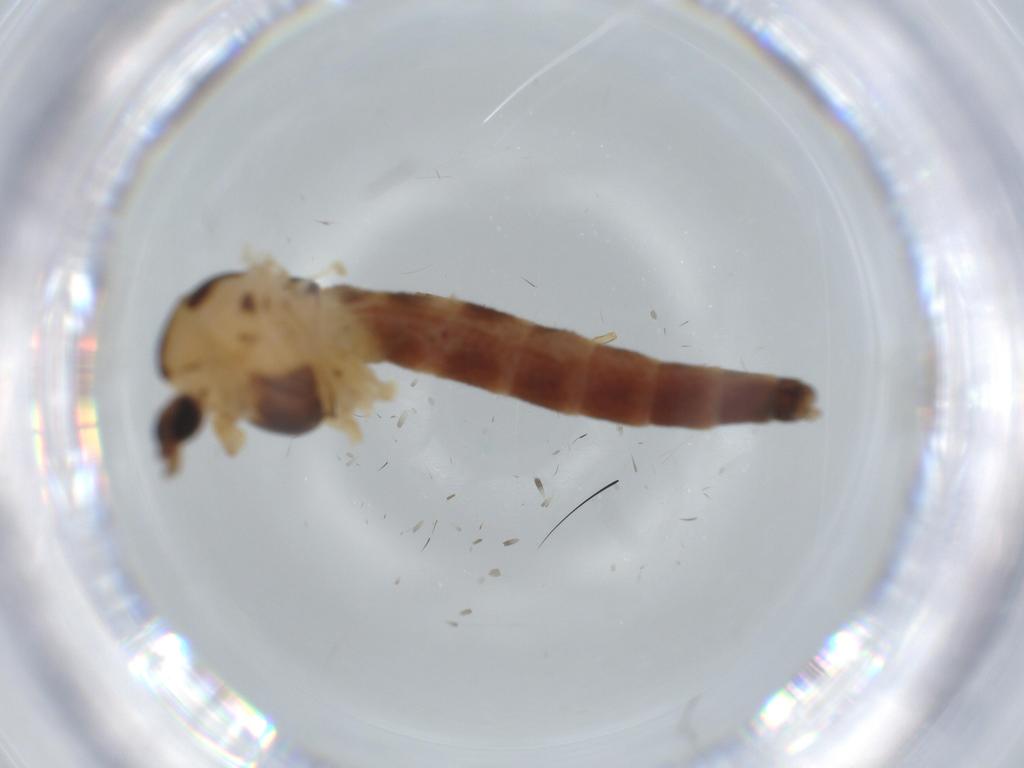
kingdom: Animalia
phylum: Arthropoda
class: Insecta
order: Diptera
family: Chironomidae
